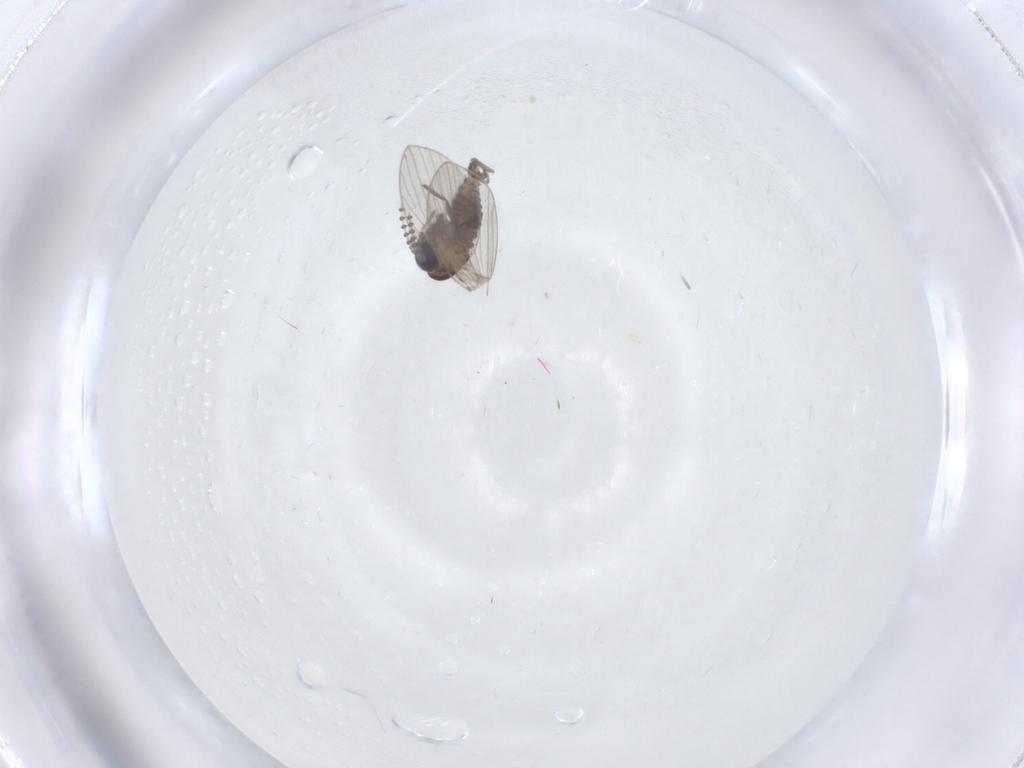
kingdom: Animalia
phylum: Arthropoda
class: Insecta
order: Diptera
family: Psychodidae
